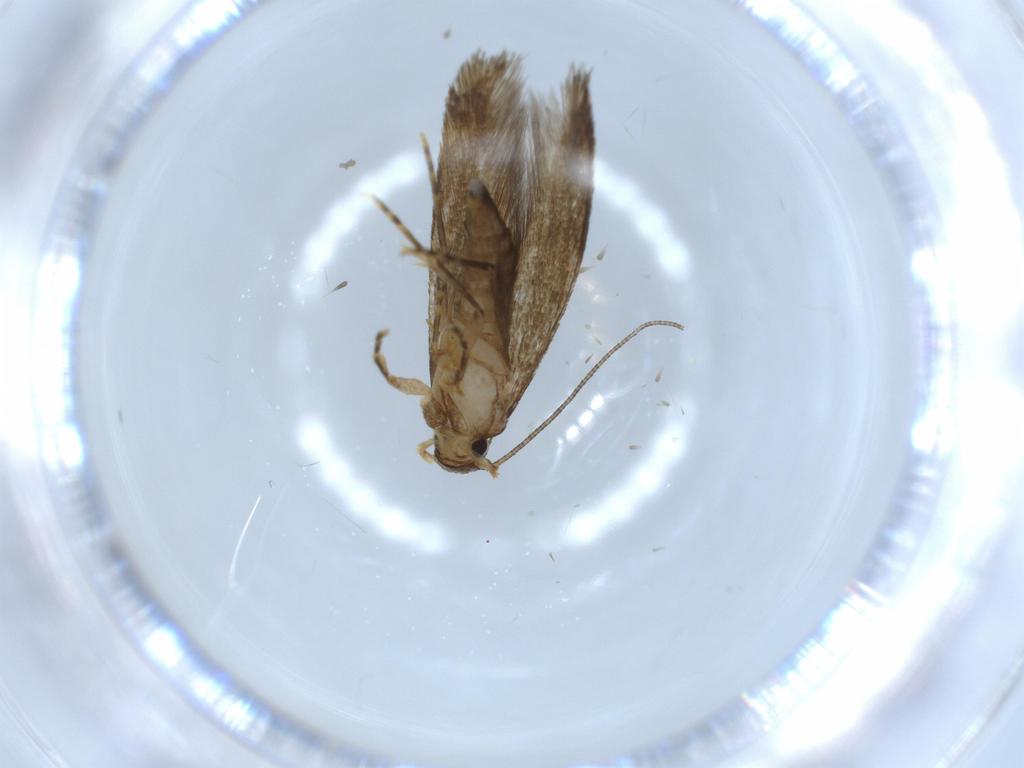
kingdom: Animalia
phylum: Arthropoda
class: Insecta
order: Lepidoptera
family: Tineidae
